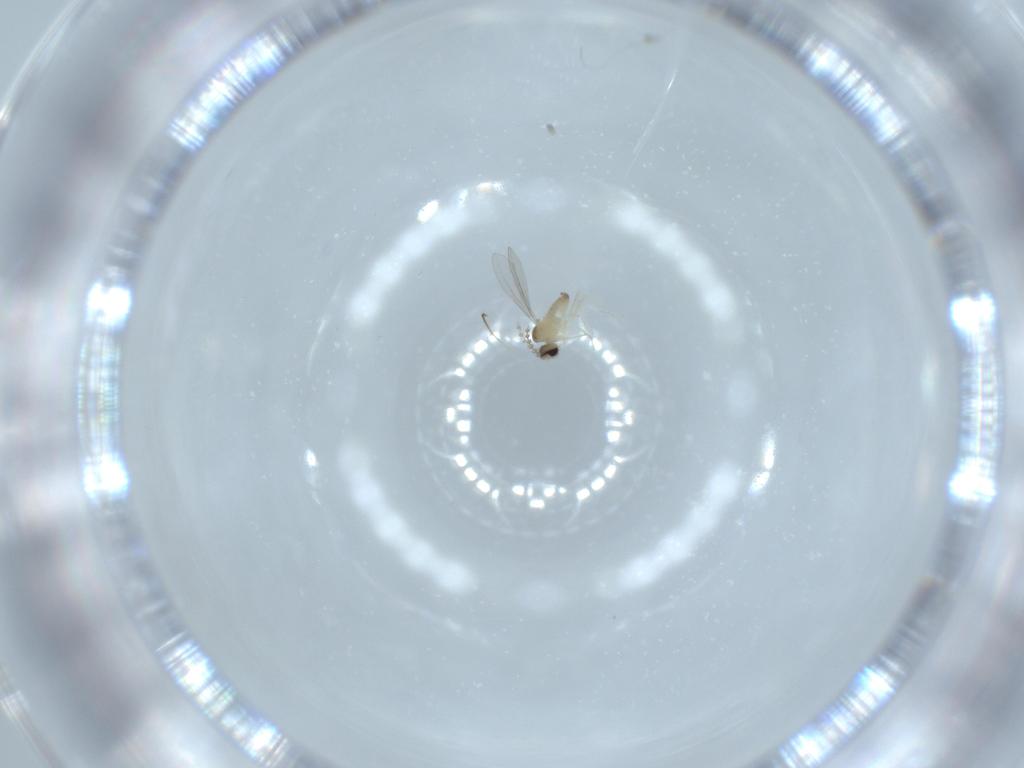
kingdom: Animalia
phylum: Arthropoda
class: Insecta
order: Diptera
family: Cecidomyiidae
